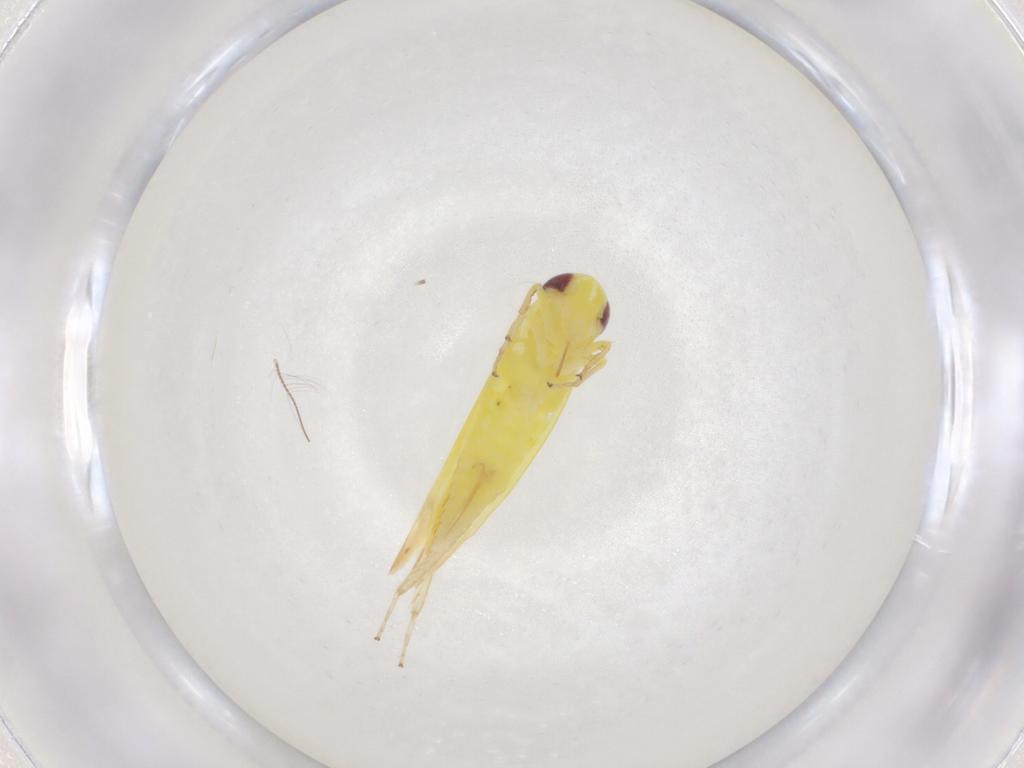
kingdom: Animalia
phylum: Arthropoda
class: Insecta
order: Hemiptera
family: Cicadellidae
